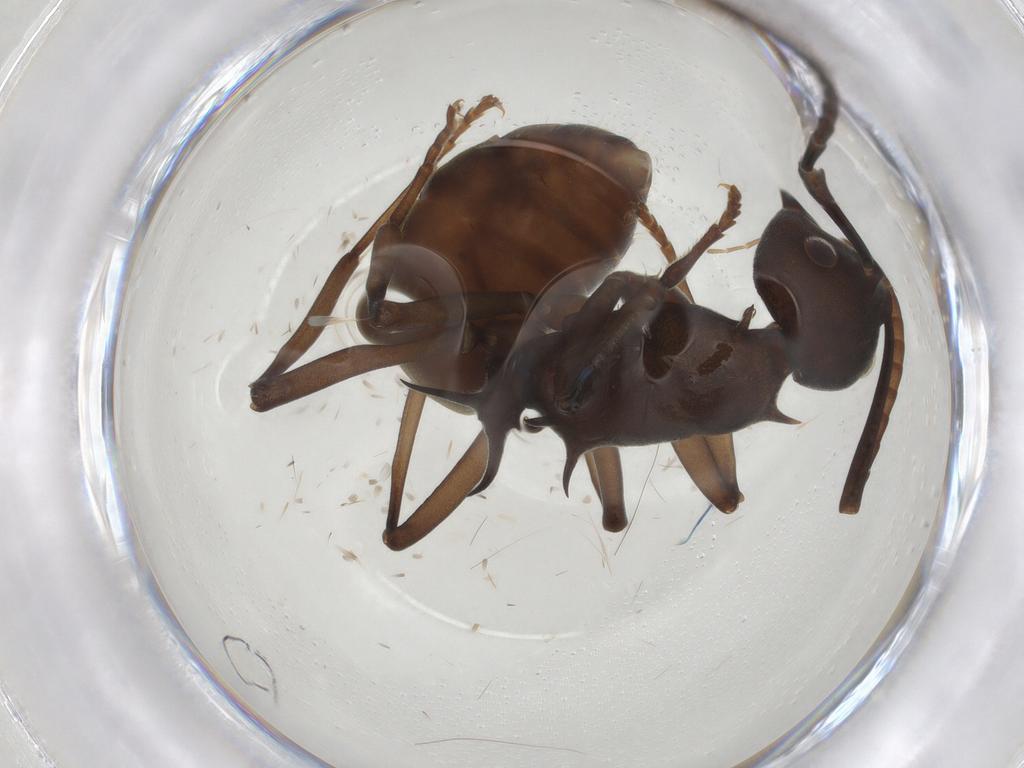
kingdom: Animalia
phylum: Arthropoda
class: Insecta
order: Hymenoptera
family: Formicidae
